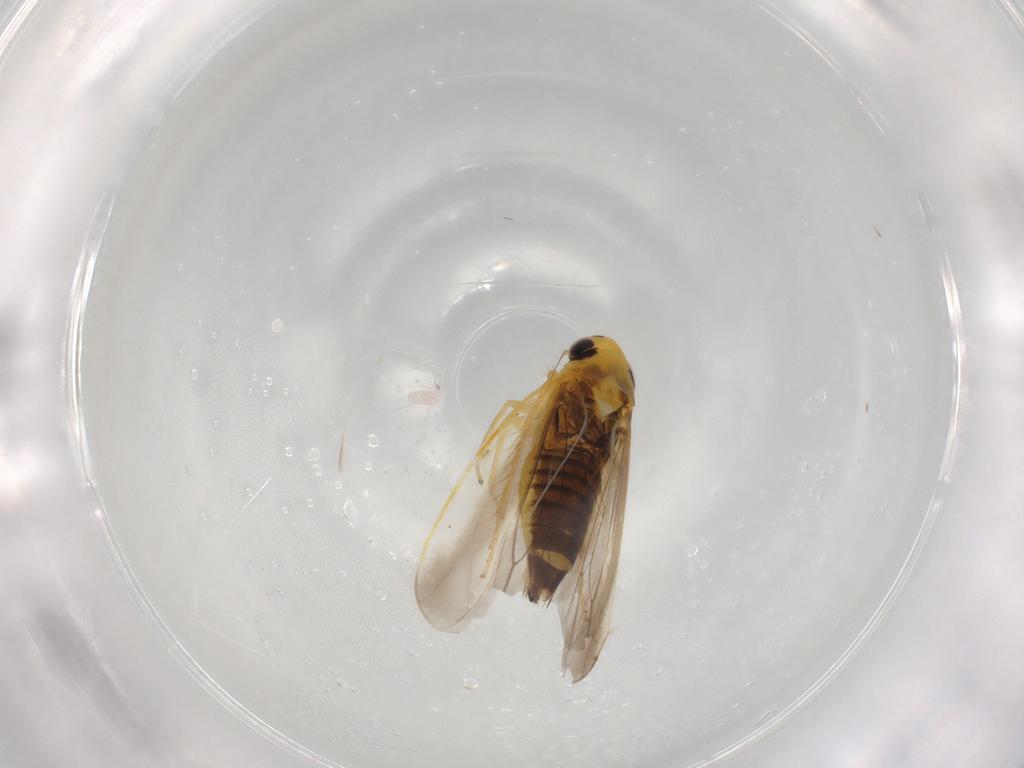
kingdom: Animalia
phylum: Arthropoda
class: Insecta
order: Hemiptera
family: Cicadellidae
